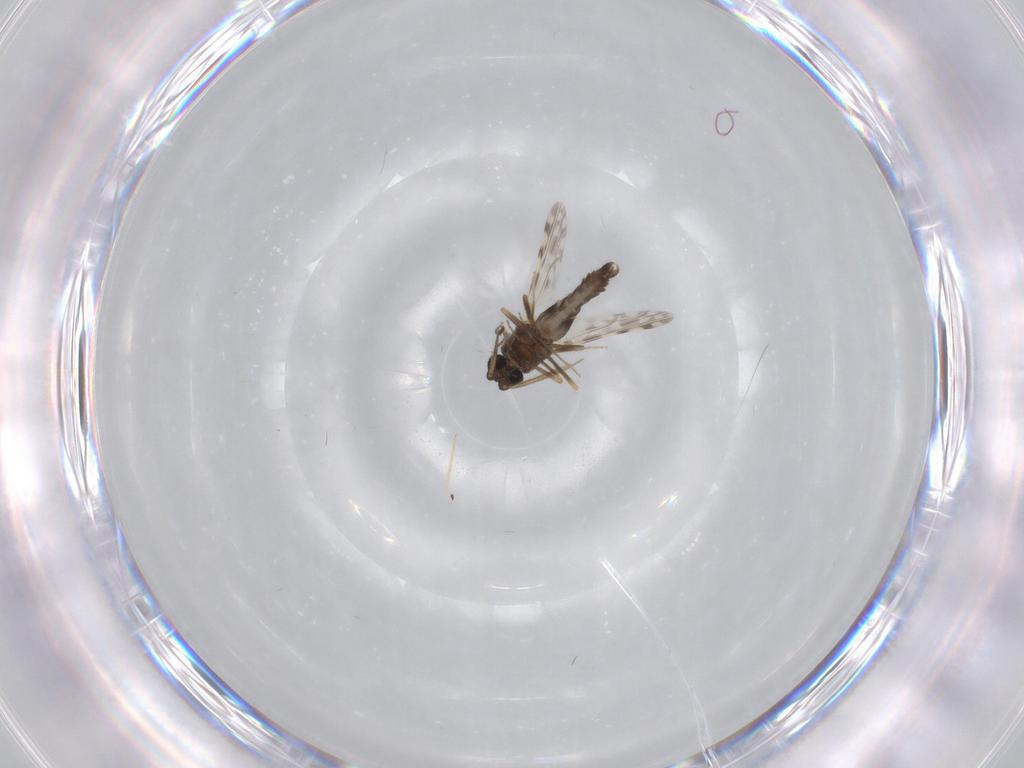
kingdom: Animalia
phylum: Arthropoda
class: Insecta
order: Diptera
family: Ceratopogonidae
